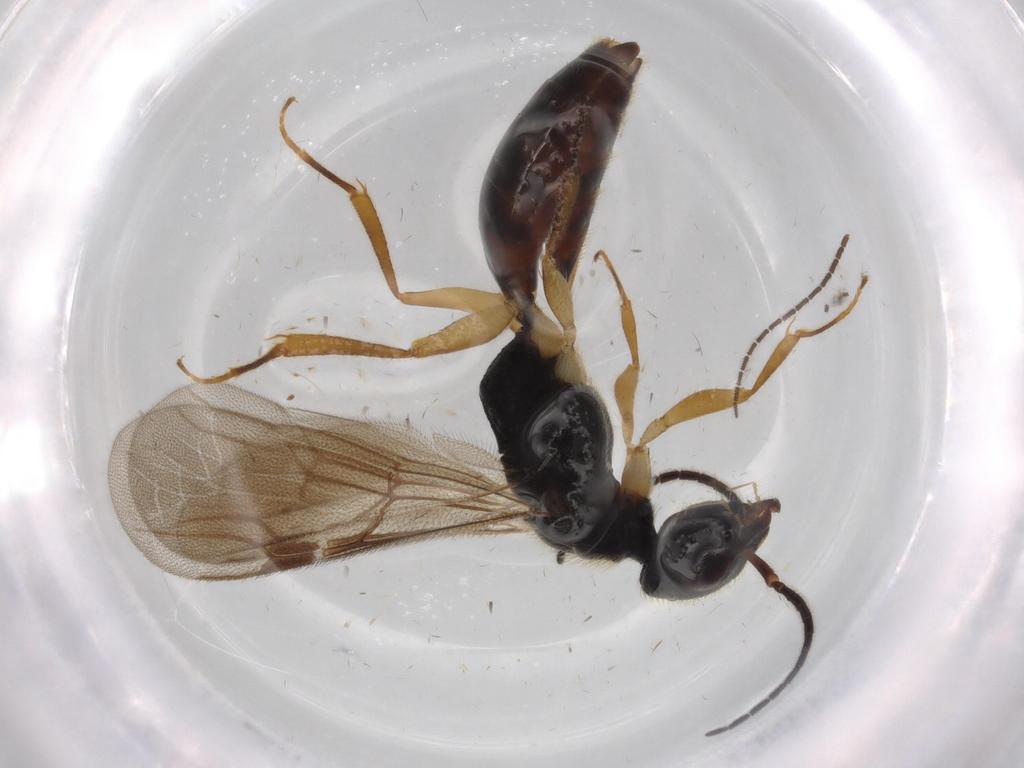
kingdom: Animalia
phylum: Arthropoda
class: Insecta
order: Hymenoptera
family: Bethylidae
